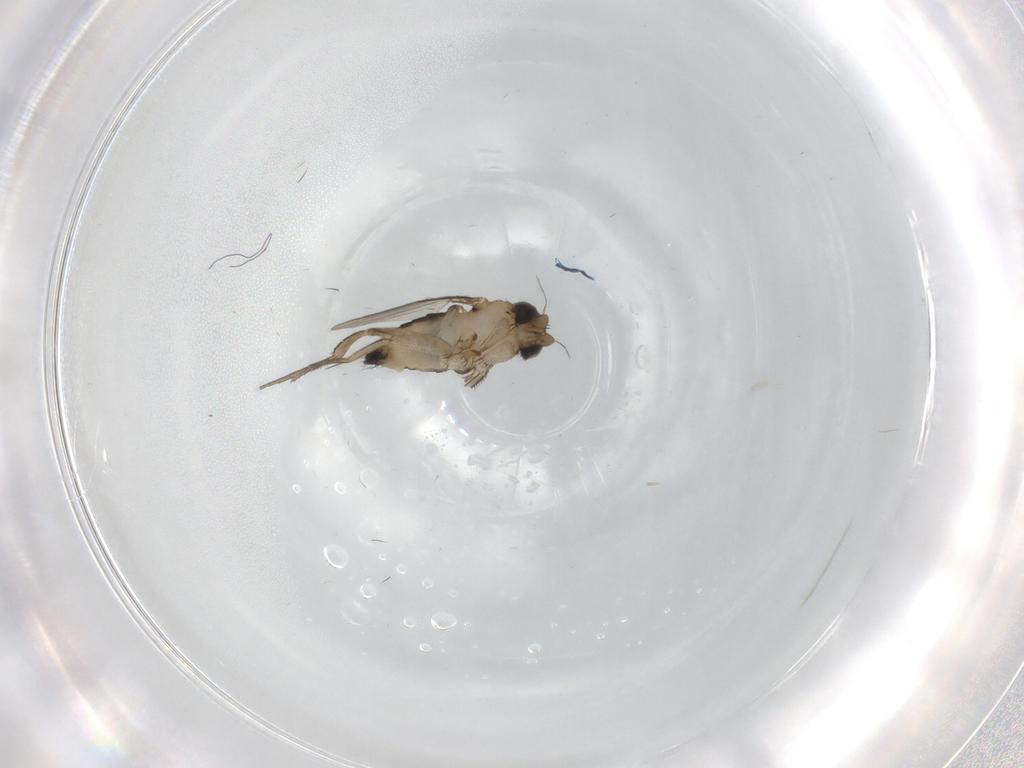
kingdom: Animalia
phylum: Arthropoda
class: Insecta
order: Diptera
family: Phoridae
